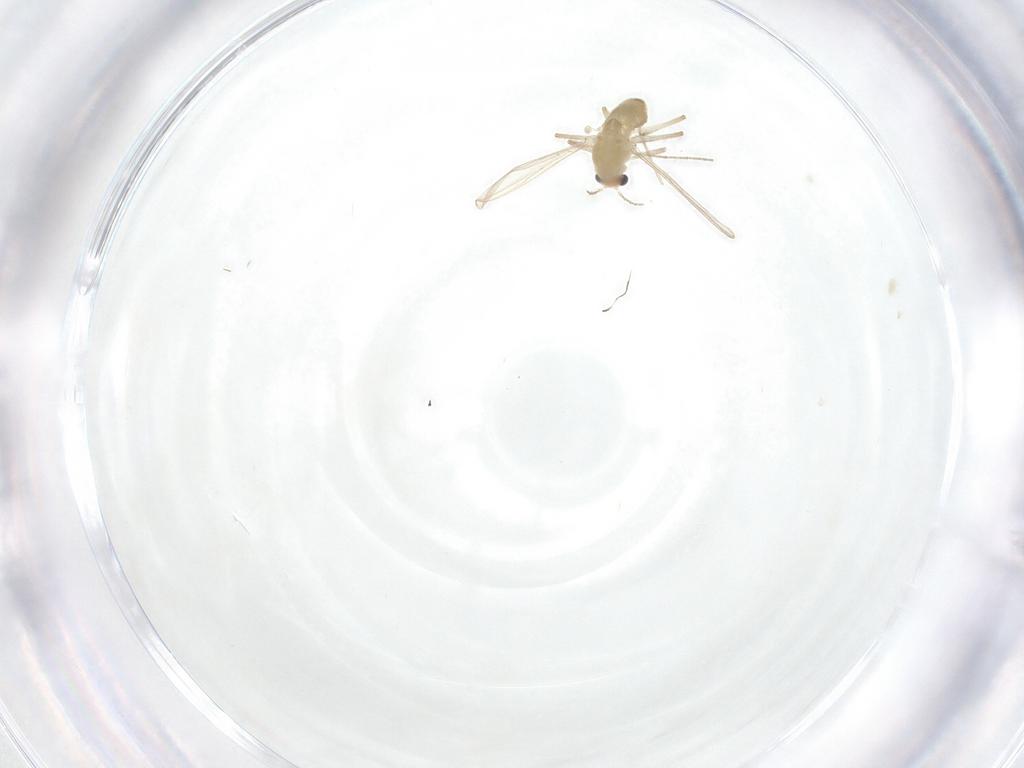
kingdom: Animalia
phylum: Arthropoda
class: Insecta
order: Diptera
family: Chironomidae
